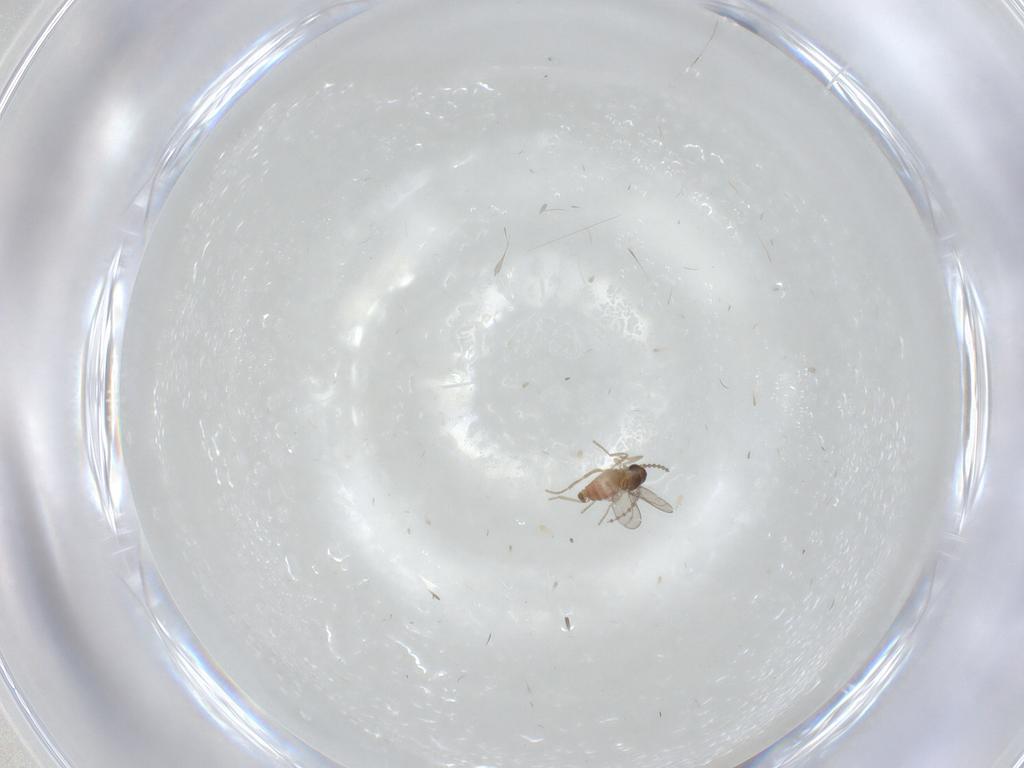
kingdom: Animalia
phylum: Arthropoda
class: Insecta
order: Diptera
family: Cecidomyiidae
